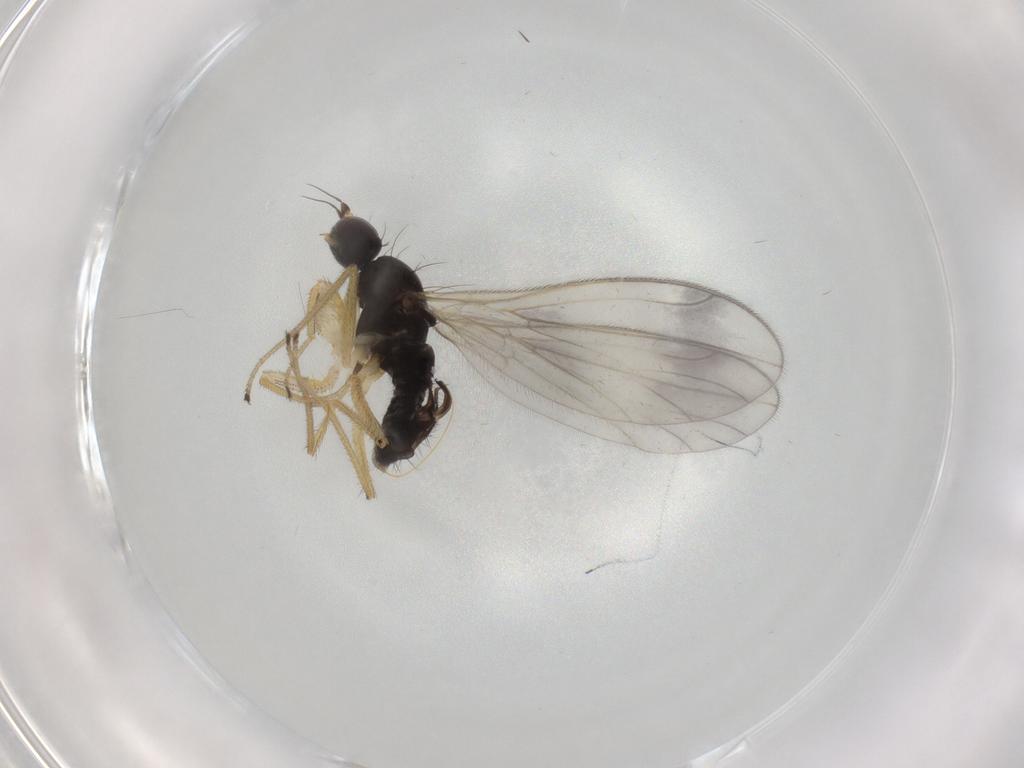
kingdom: Animalia
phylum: Arthropoda
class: Insecta
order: Diptera
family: Chironomidae
